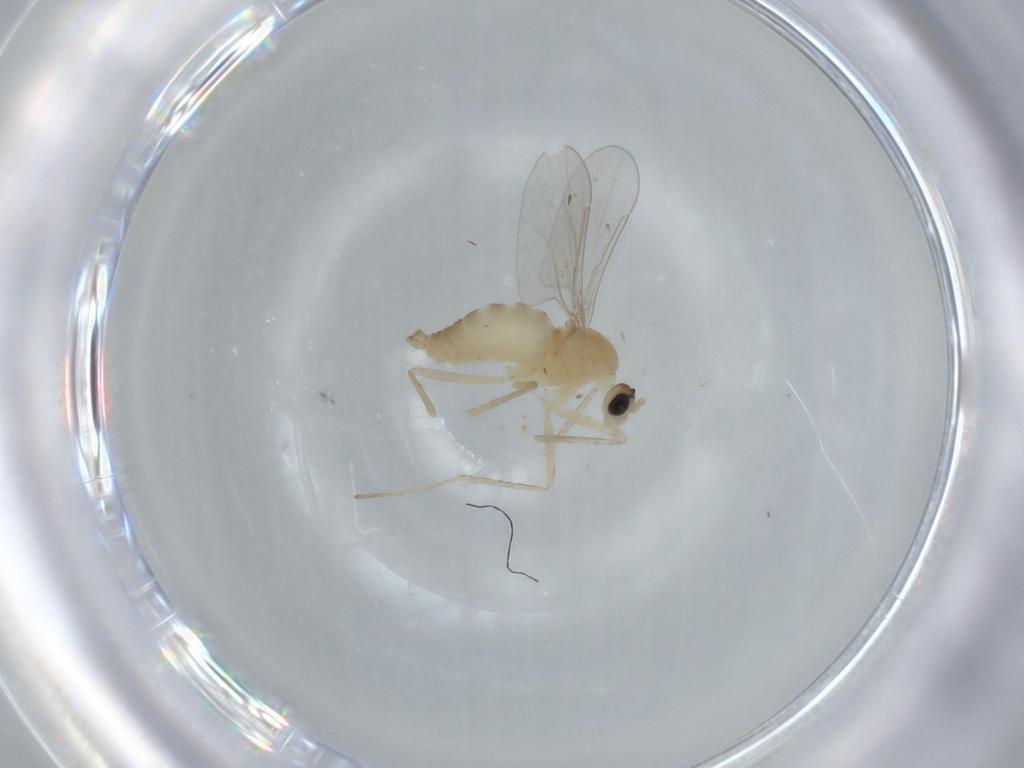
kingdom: Animalia
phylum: Arthropoda
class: Insecta
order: Diptera
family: Cecidomyiidae
